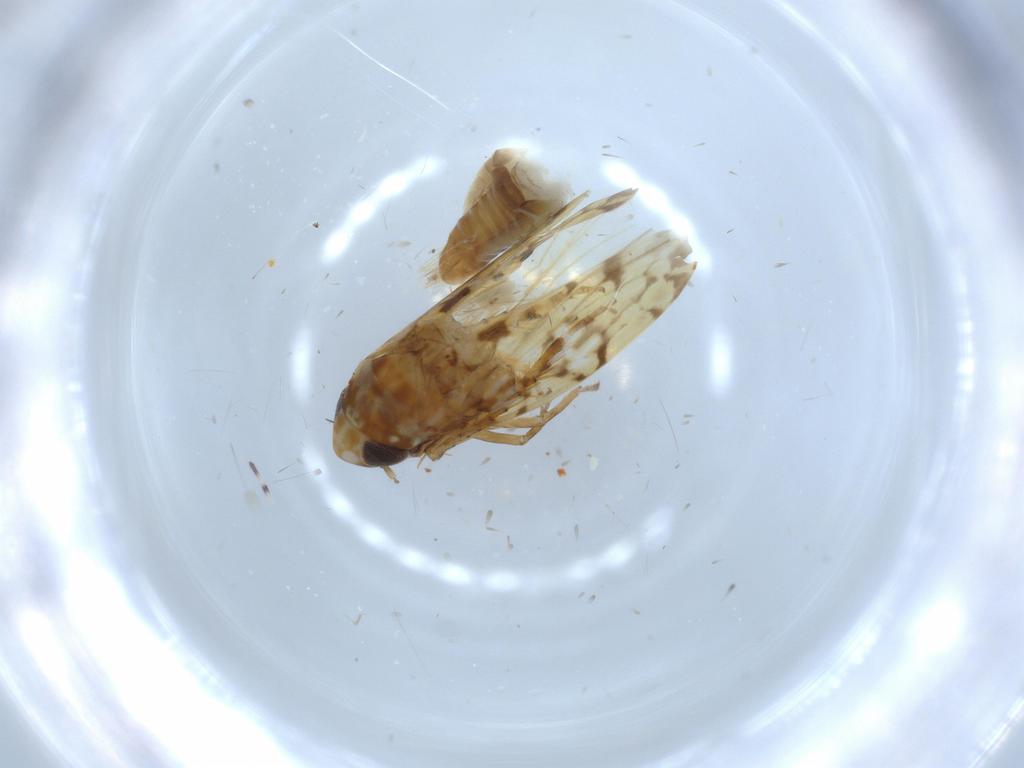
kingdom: Animalia
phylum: Arthropoda
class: Insecta
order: Hemiptera
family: Cicadellidae
